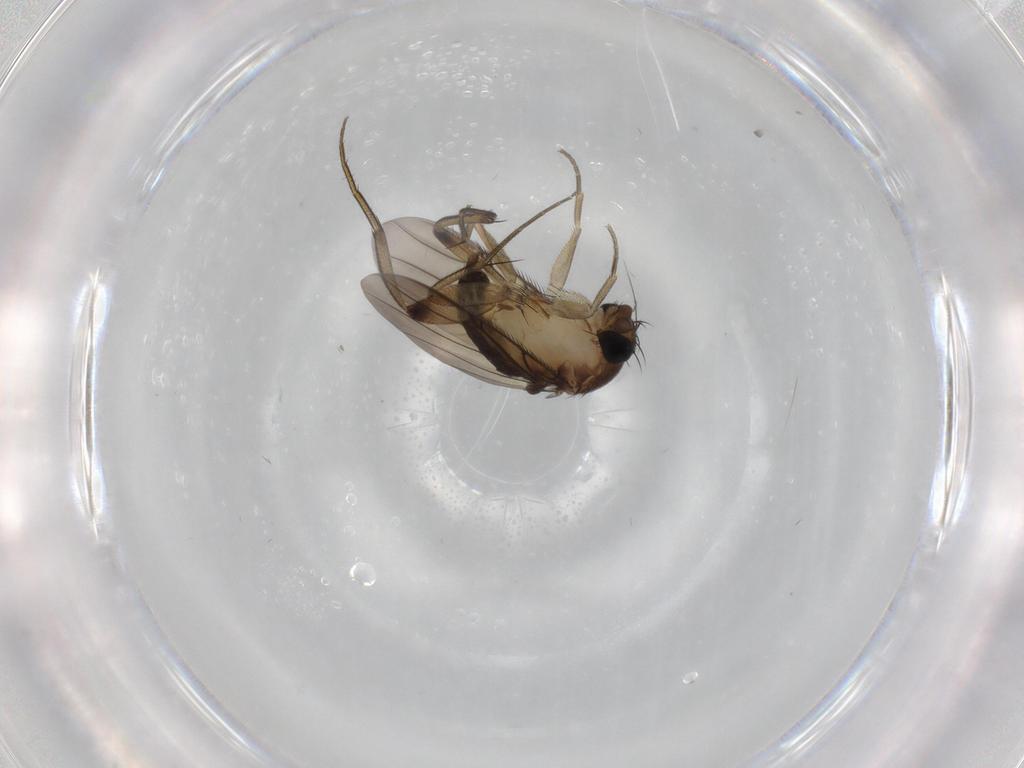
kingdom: Animalia
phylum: Arthropoda
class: Insecta
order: Diptera
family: Phoridae
